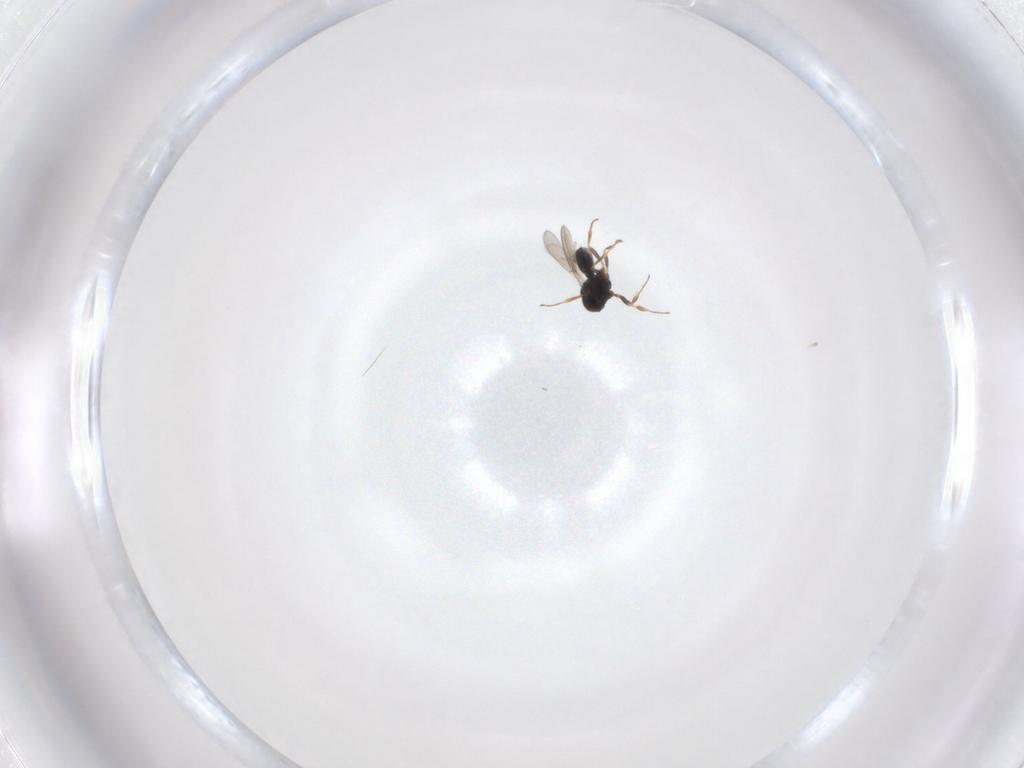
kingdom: Animalia
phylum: Arthropoda
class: Insecta
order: Hymenoptera
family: Scelionidae
